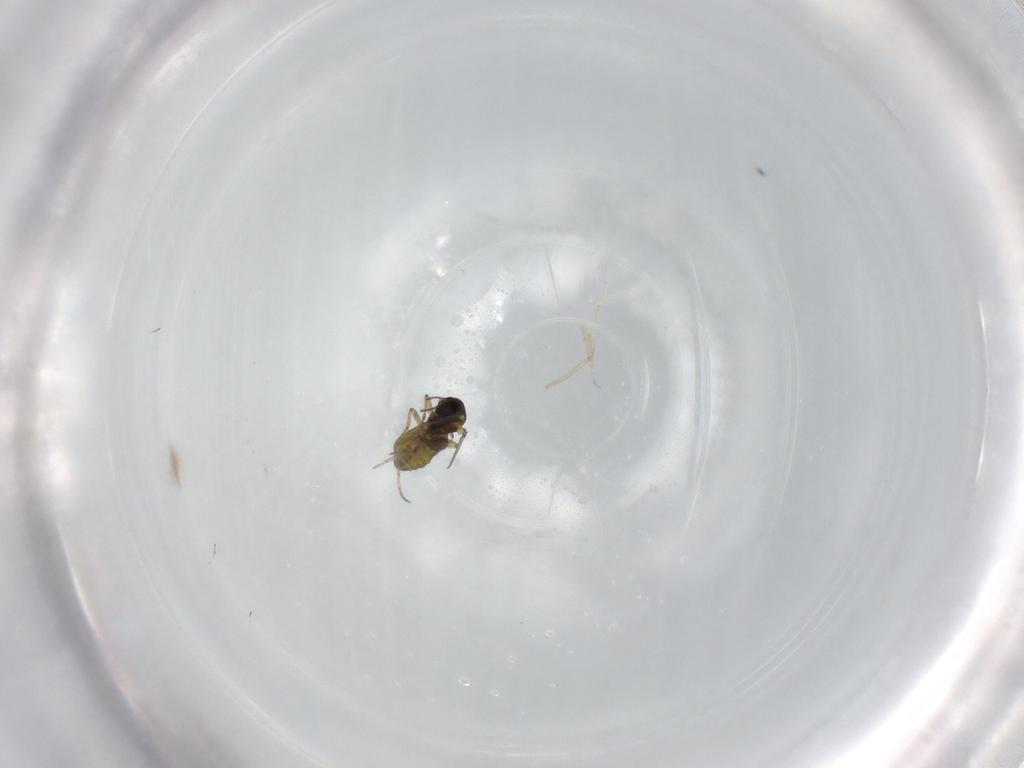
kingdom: Animalia
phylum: Arthropoda
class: Insecta
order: Diptera
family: Ceratopogonidae
